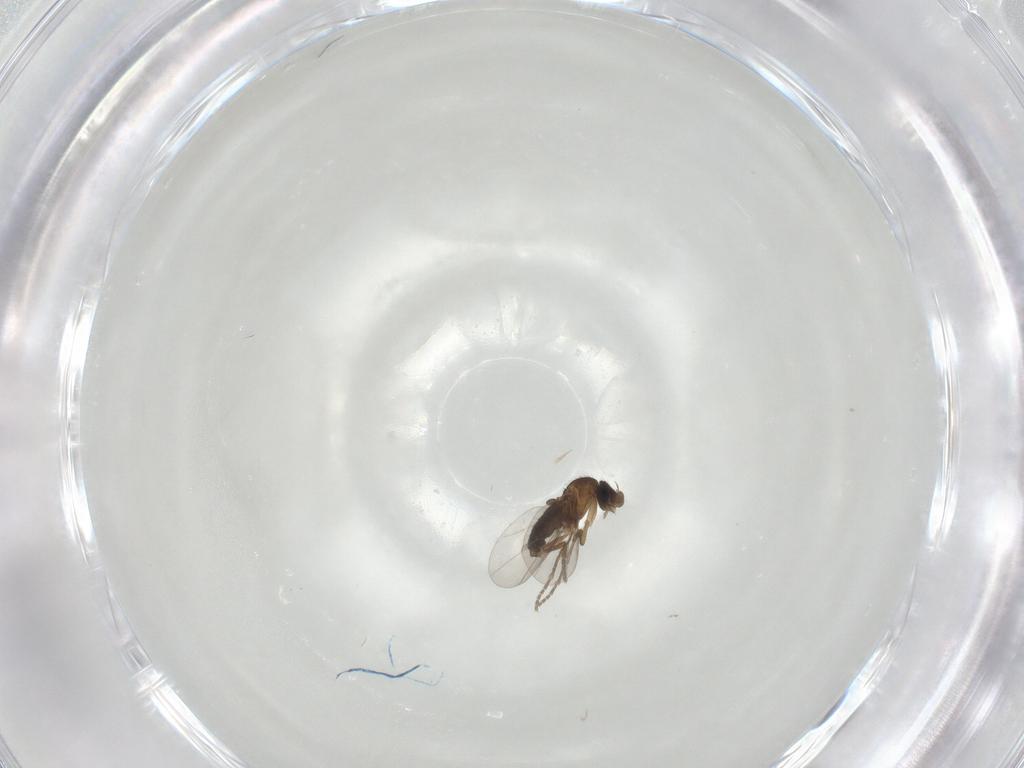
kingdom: Animalia
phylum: Arthropoda
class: Insecta
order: Diptera
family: Phoridae
